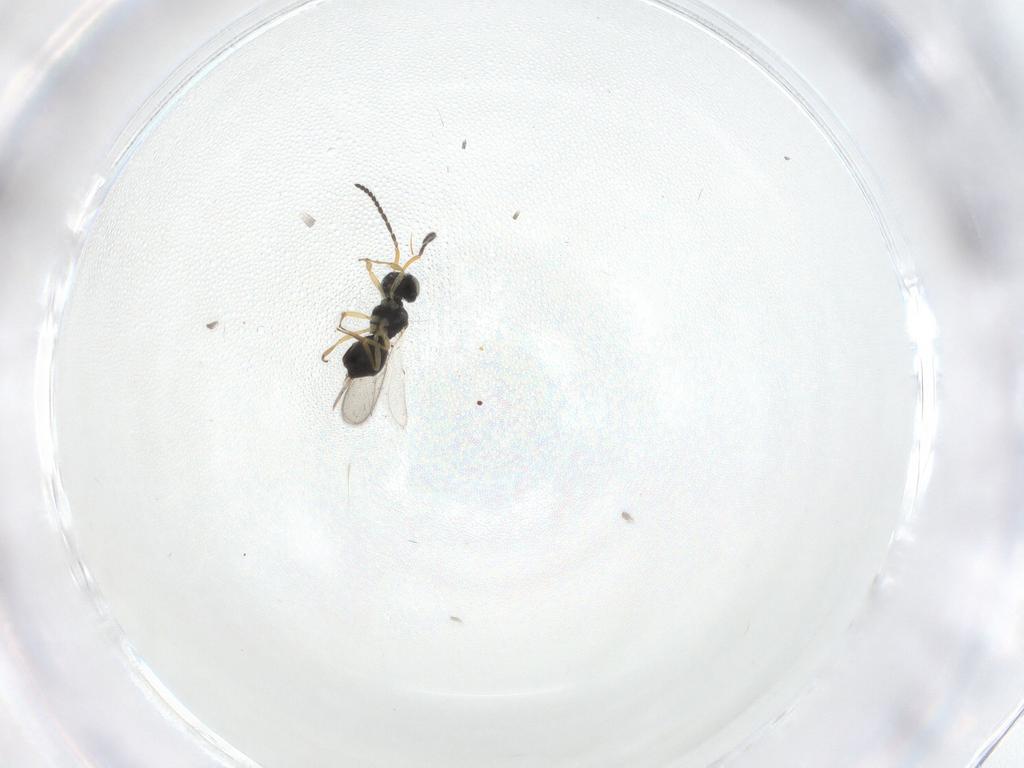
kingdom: Animalia
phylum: Arthropoda
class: Insecta
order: Hymenoptera
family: Scelionidae
